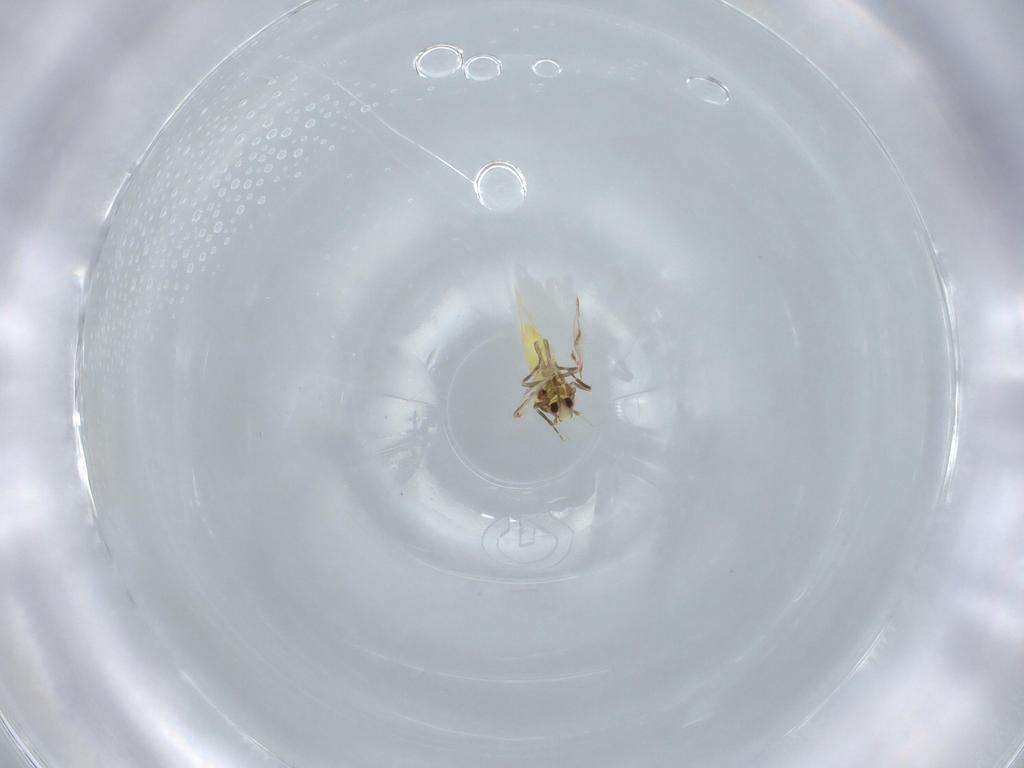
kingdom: Animalia
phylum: Arthropoda
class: Insecta
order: Hemiptera
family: Aleyrodidae
